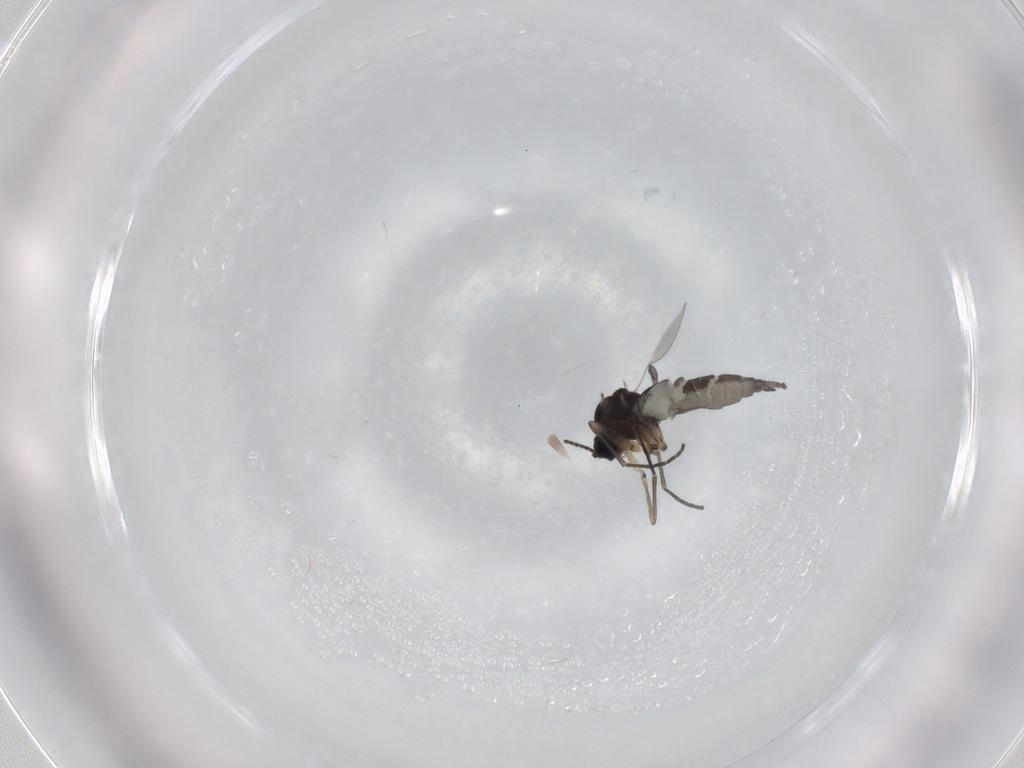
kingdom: Animalia
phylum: Arthropoda
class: Insecta
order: Diptera
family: Sciaridae
